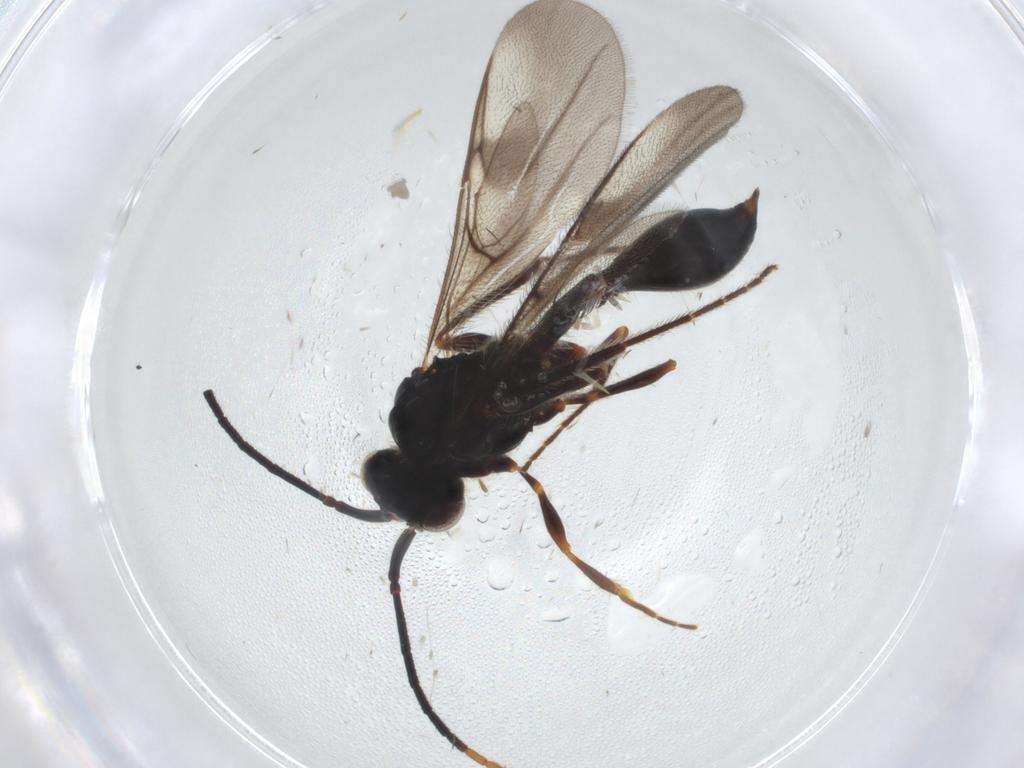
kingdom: Animalia
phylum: Arthropoda
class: Insecta
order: Hymenoptera
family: Diapriidae
